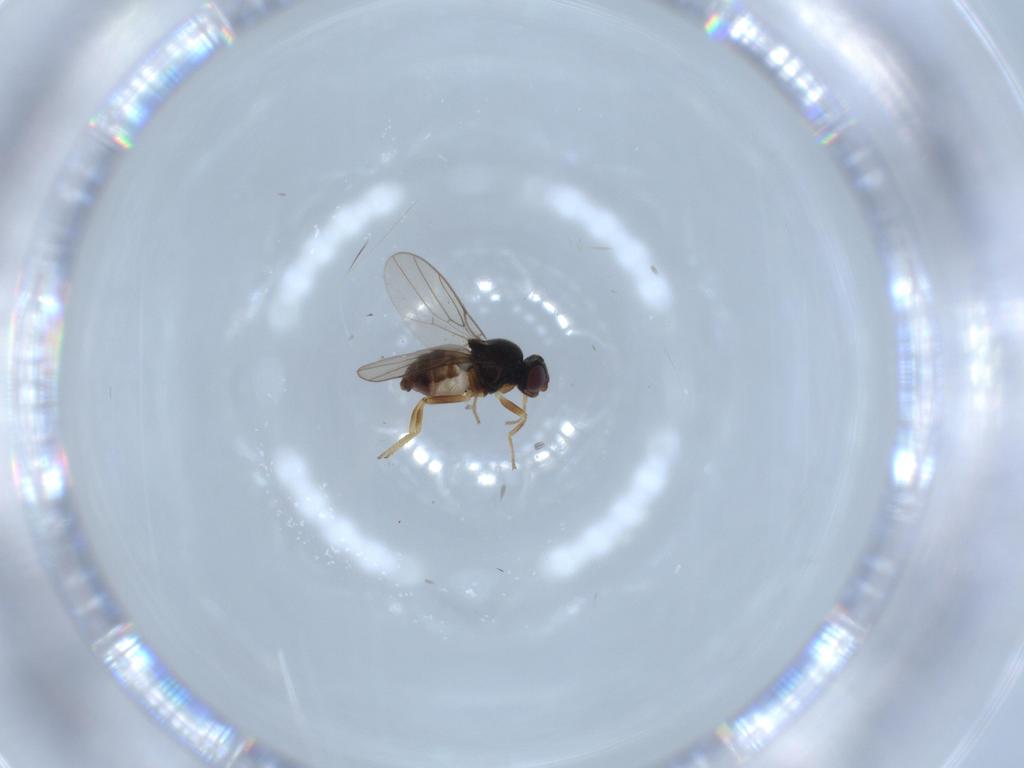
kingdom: Animalia
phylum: Arthropoda
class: Insecta
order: Diptera
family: Chloropidae
